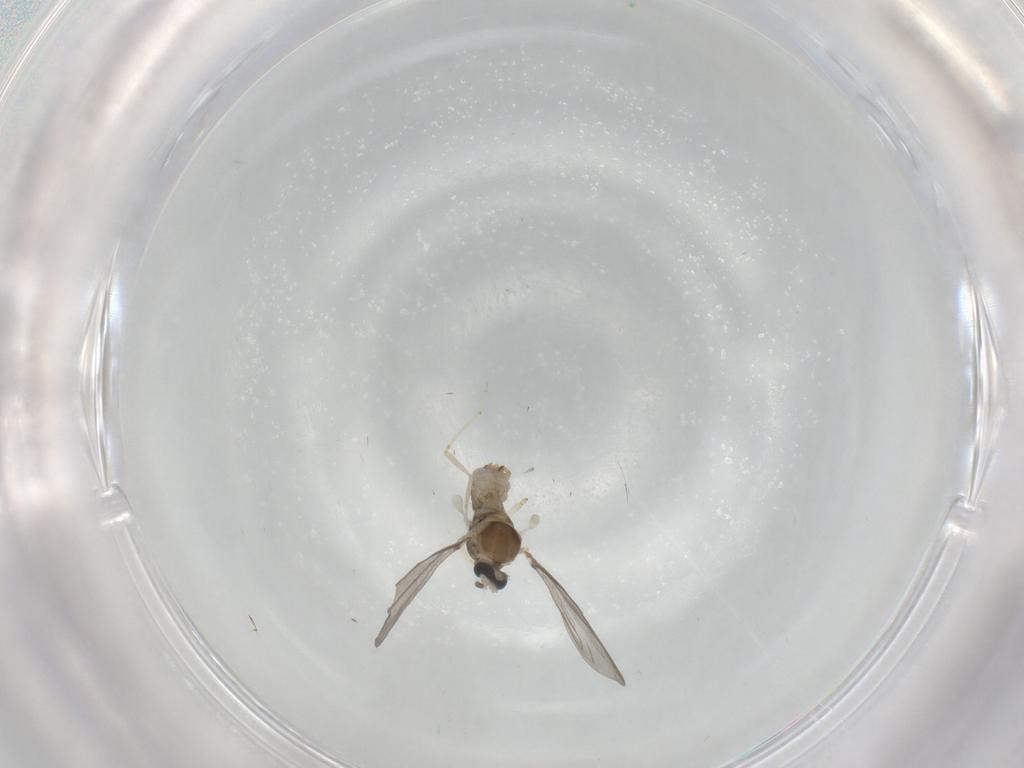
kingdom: Animalia
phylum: Arthropoda
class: Insecta
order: Diptera
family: Cecidomyiidae
